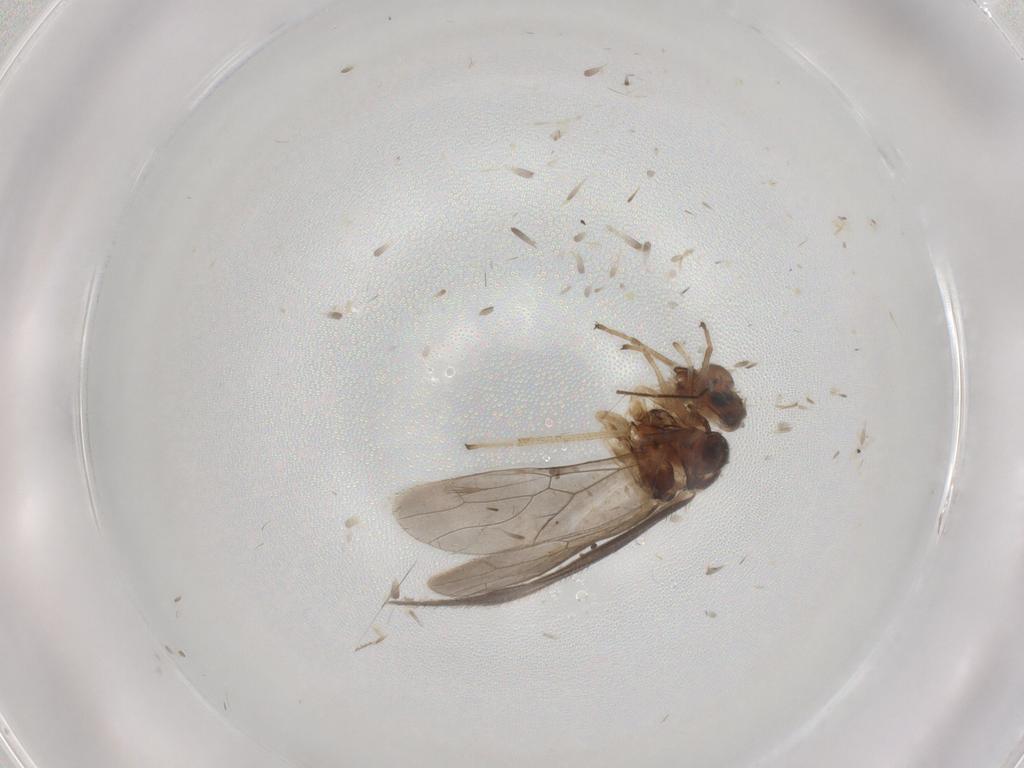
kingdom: Animalia
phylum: Arthropoda
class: Insecta
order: Psocodea
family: Caeciliusidae
